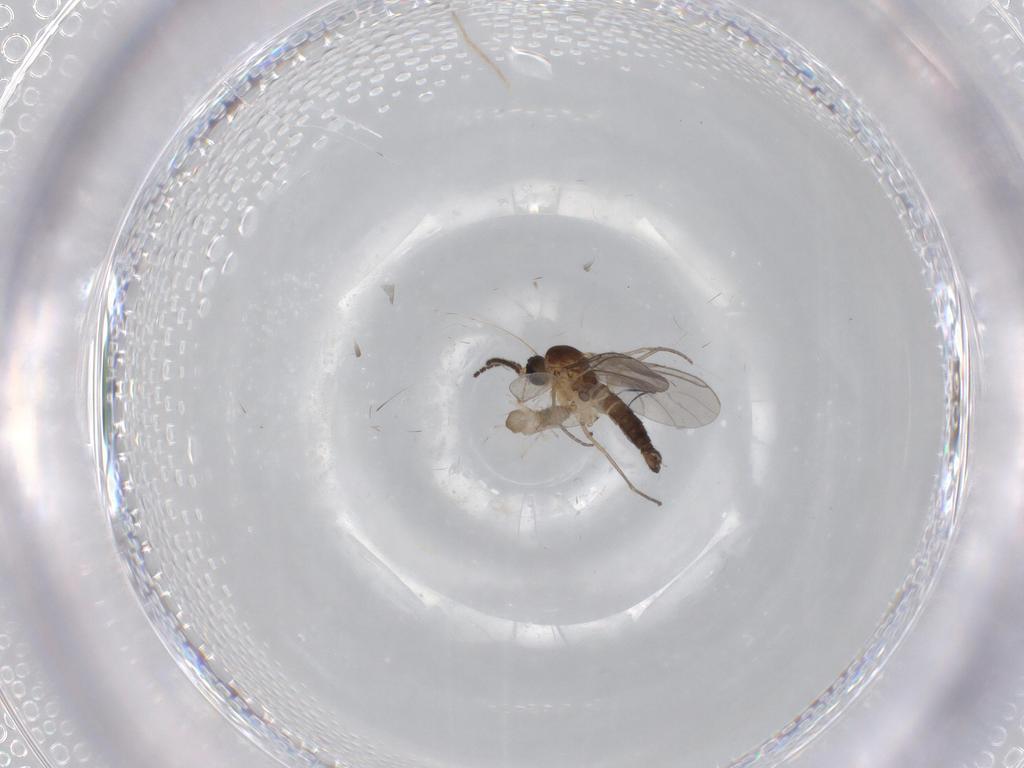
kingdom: Animalia
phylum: Arthropoda
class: Insecta
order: Diptera
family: Sciaridae
